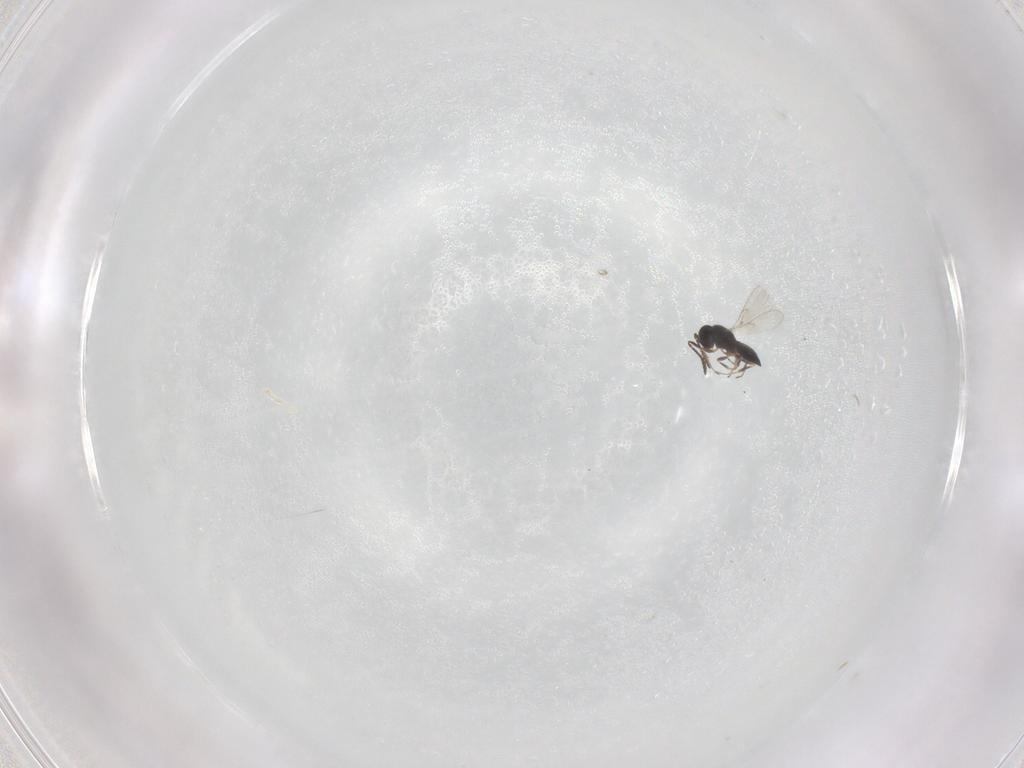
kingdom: Animalia
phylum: Arthropoda
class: Insecta
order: Hymenoptera
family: Scelionidae
